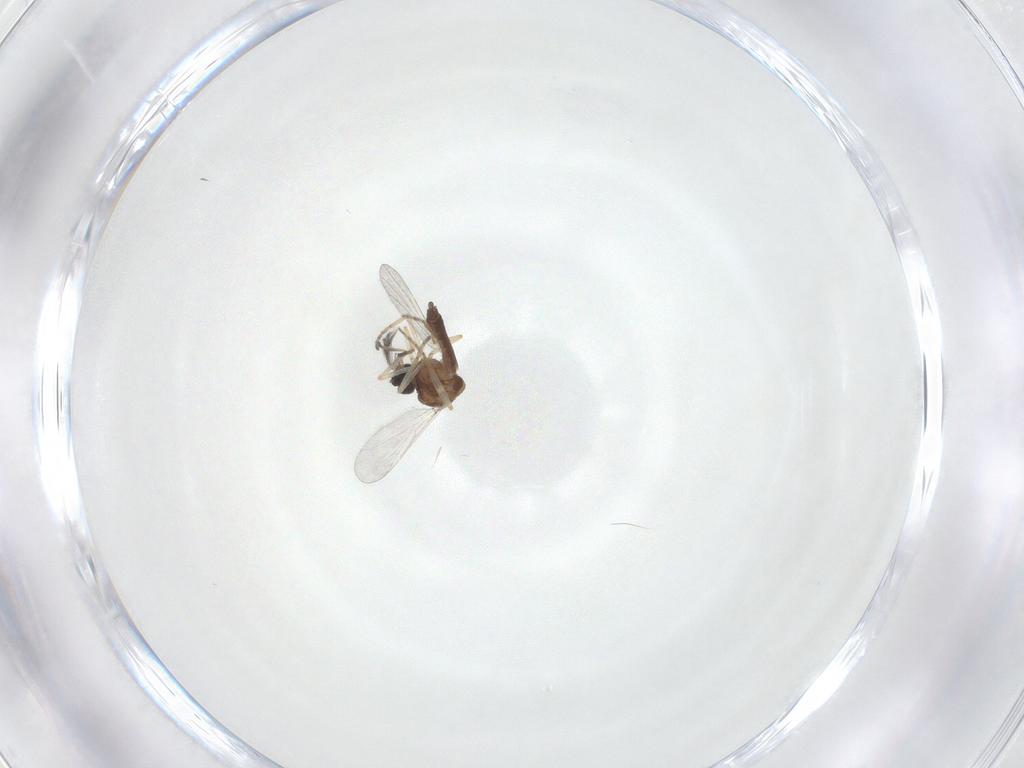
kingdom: Animalia
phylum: Arthropoda
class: Insecta
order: Diptera
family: Ceratopogonidae
